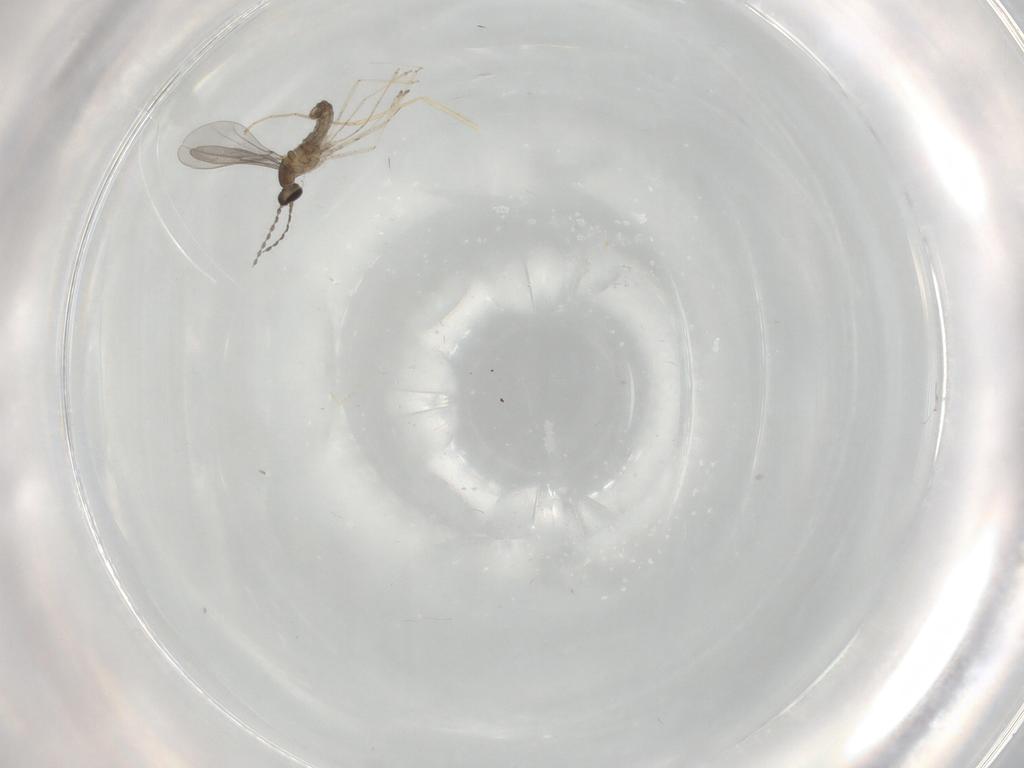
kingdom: Animalia
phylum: Arthropoda
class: Insecta
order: Diptera
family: Cecidomyiidae
